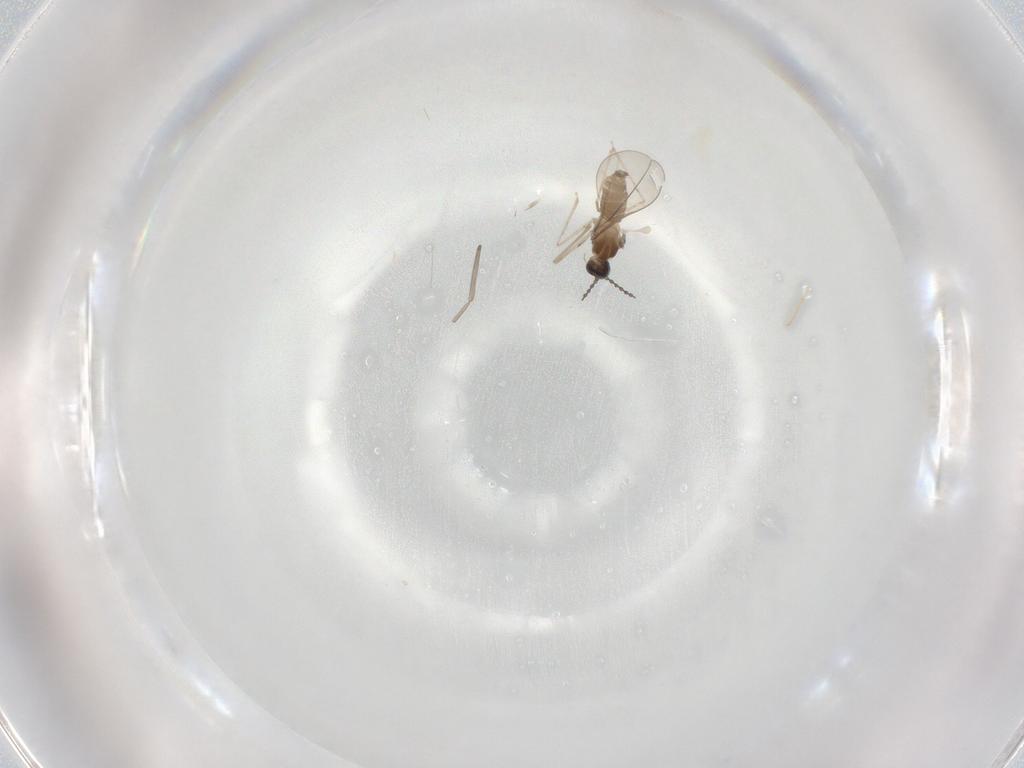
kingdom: Animalia
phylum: Arthropoda
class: Insecta
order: Diptera
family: Cecidomyiidae
